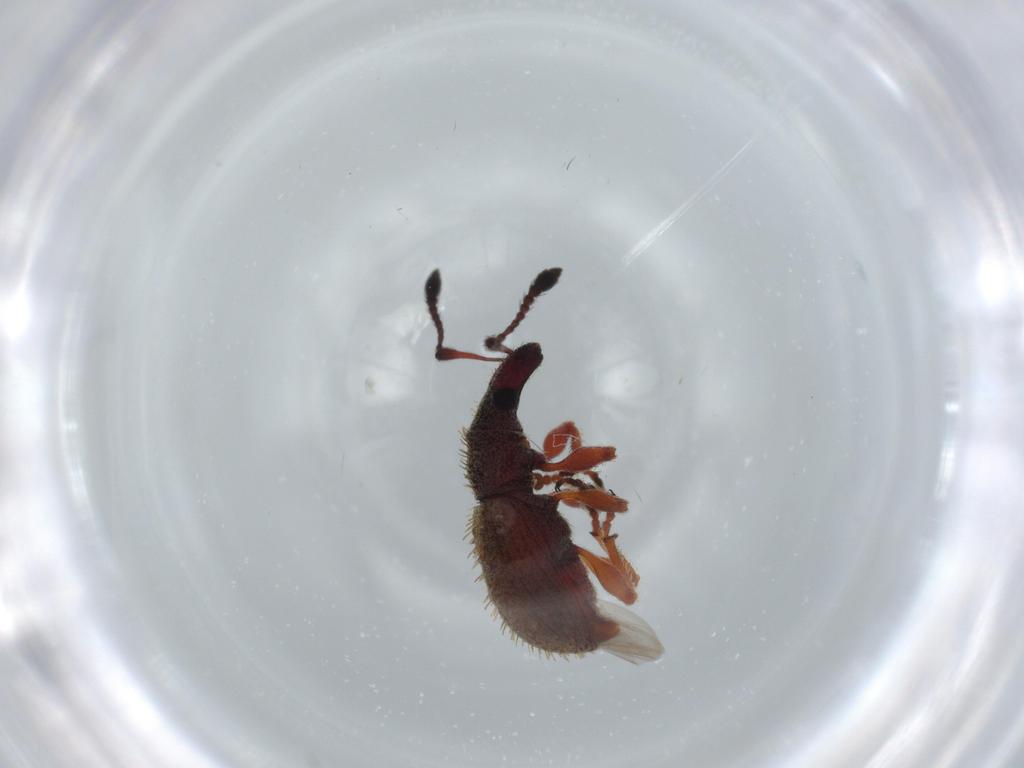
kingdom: Animalia
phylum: Arthropoda
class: Insecta
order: Coleoptera
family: Curculionidae
